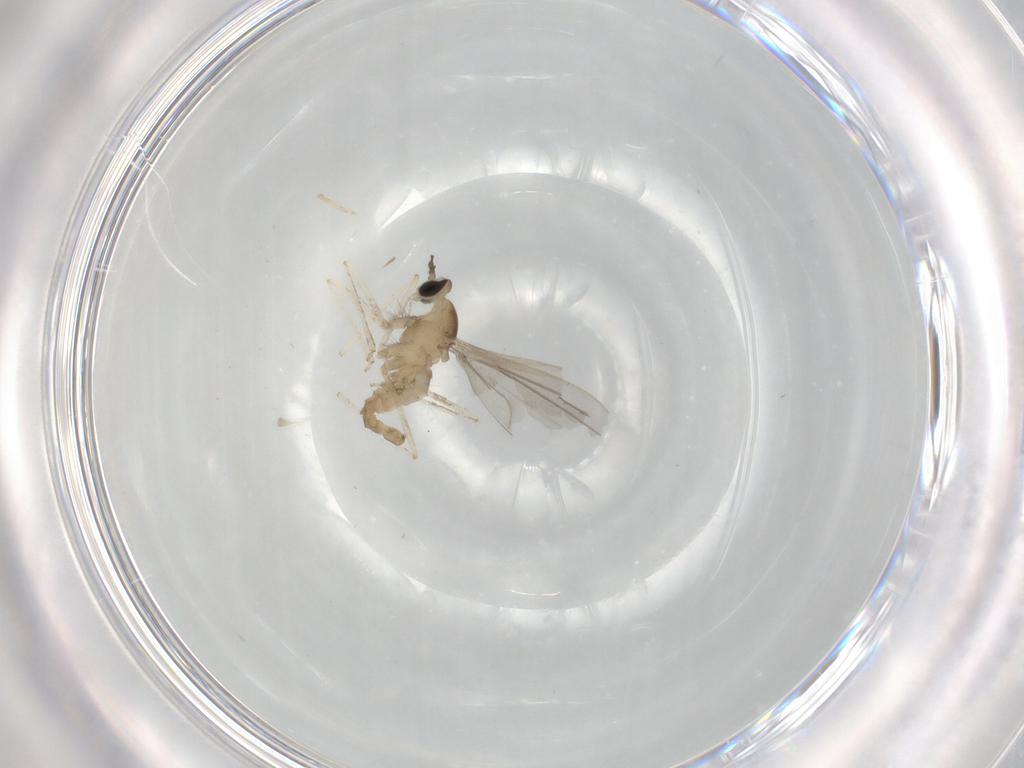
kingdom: Animalia
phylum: Arthropoda
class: Insecta
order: Diptera
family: Cecidomyiidae
